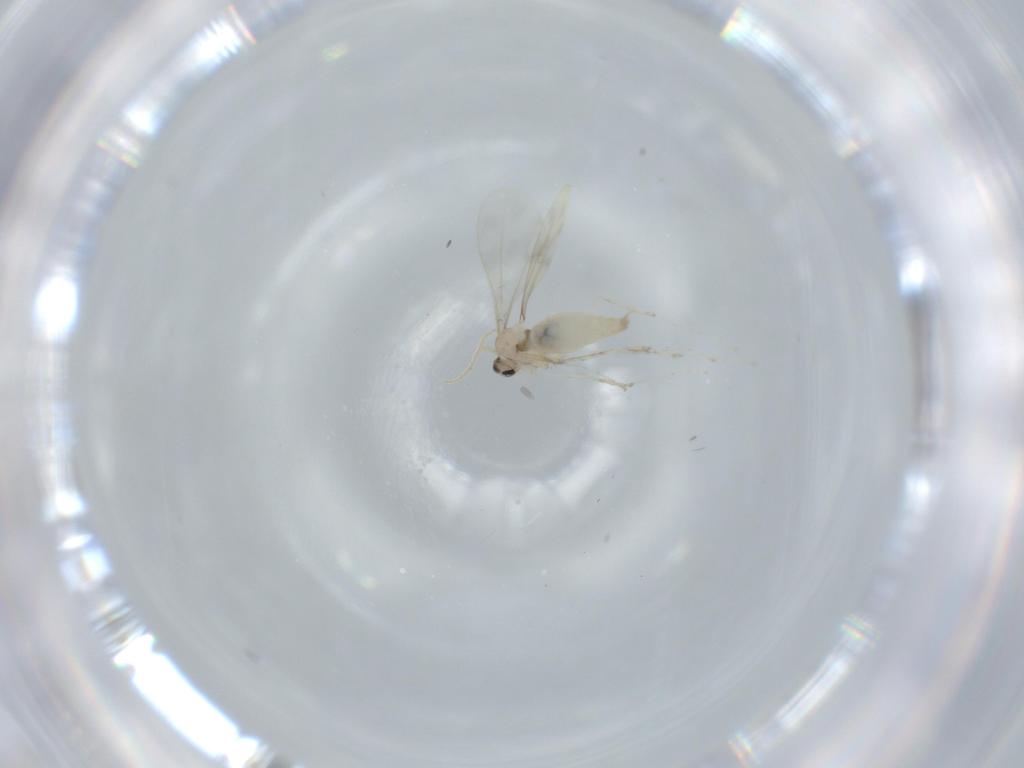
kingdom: Animalia
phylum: Arthropoda
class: Insecta
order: Diptera
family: Cecidomyiidae
